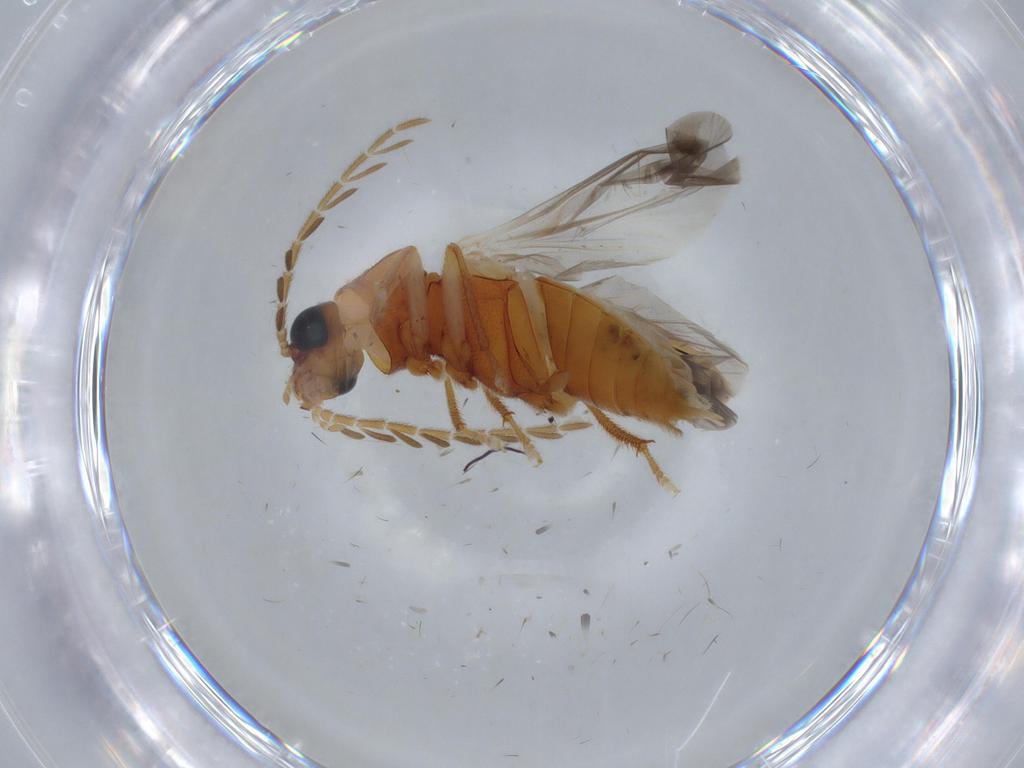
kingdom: Animalia
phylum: Arthropoda
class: Insecta
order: Coleoptera
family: Ptilodactylidae
